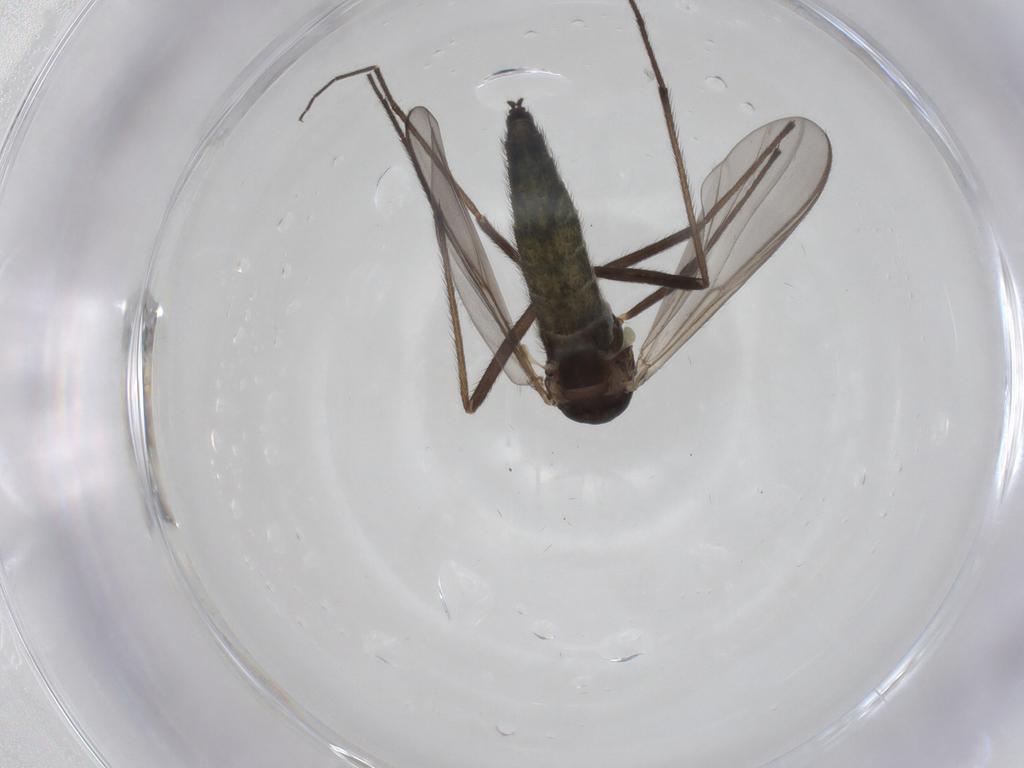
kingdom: Animalia
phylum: Arthropoda
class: Insecta
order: Diptera
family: Chironomidae
